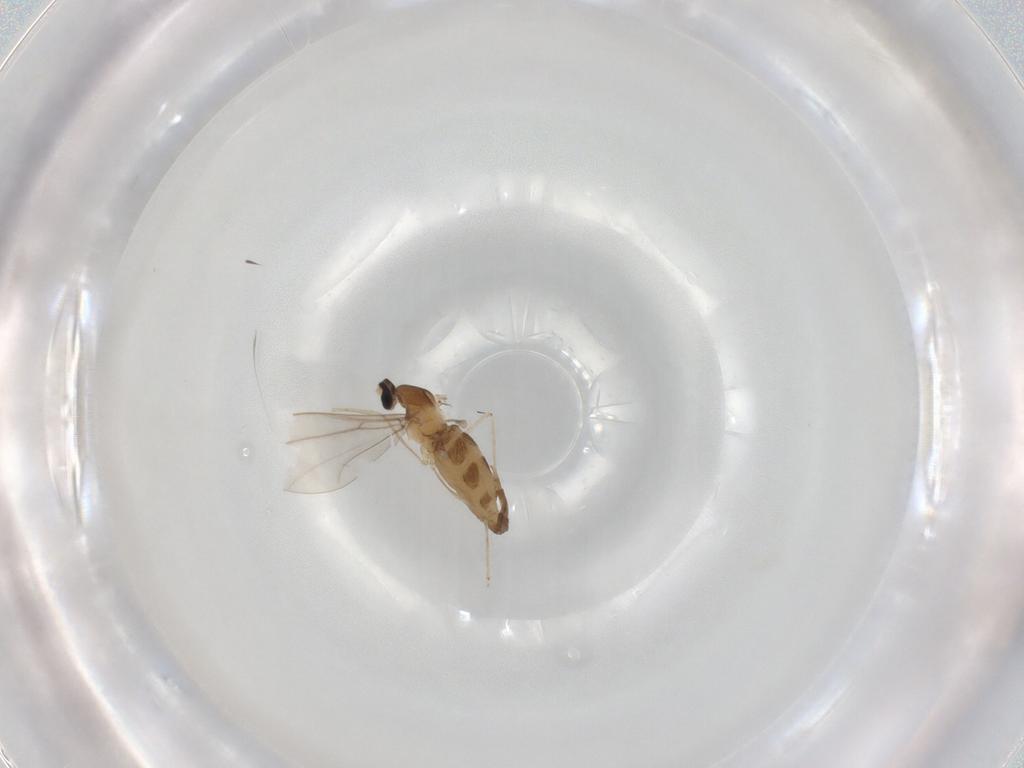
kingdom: Animalia
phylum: Arthropoda
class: Insecta
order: Diptera
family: Cecidomyiidae
